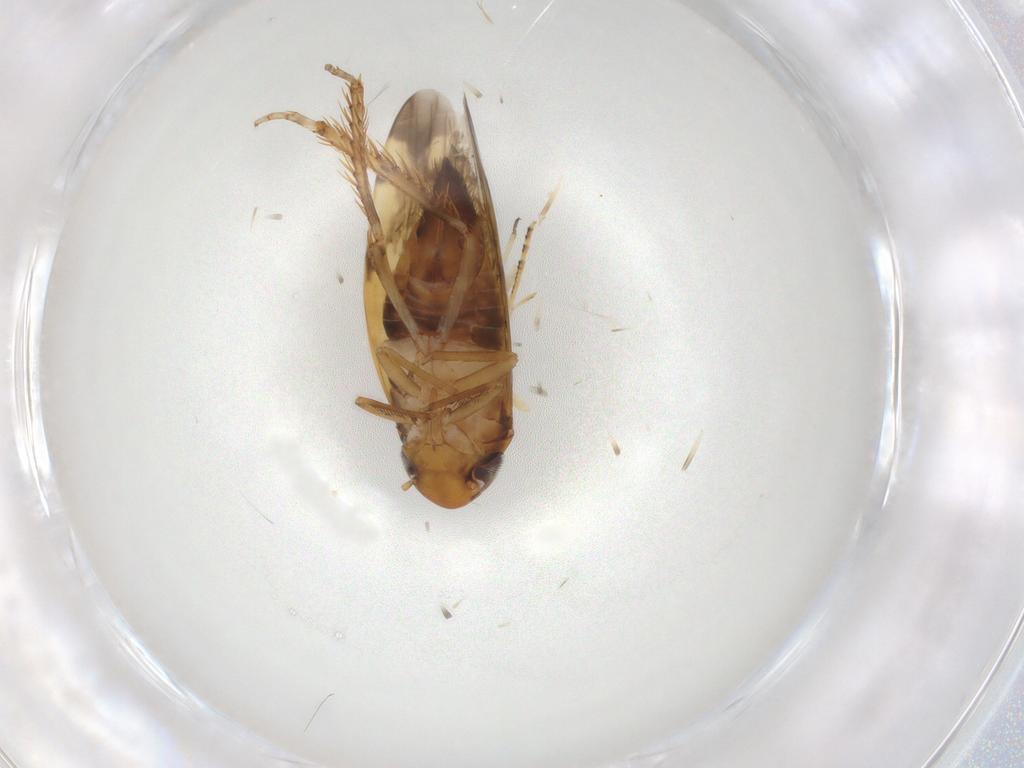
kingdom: Animalia
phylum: Arthropoda
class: Insecta
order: Hemiptera
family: Cicadellidae
